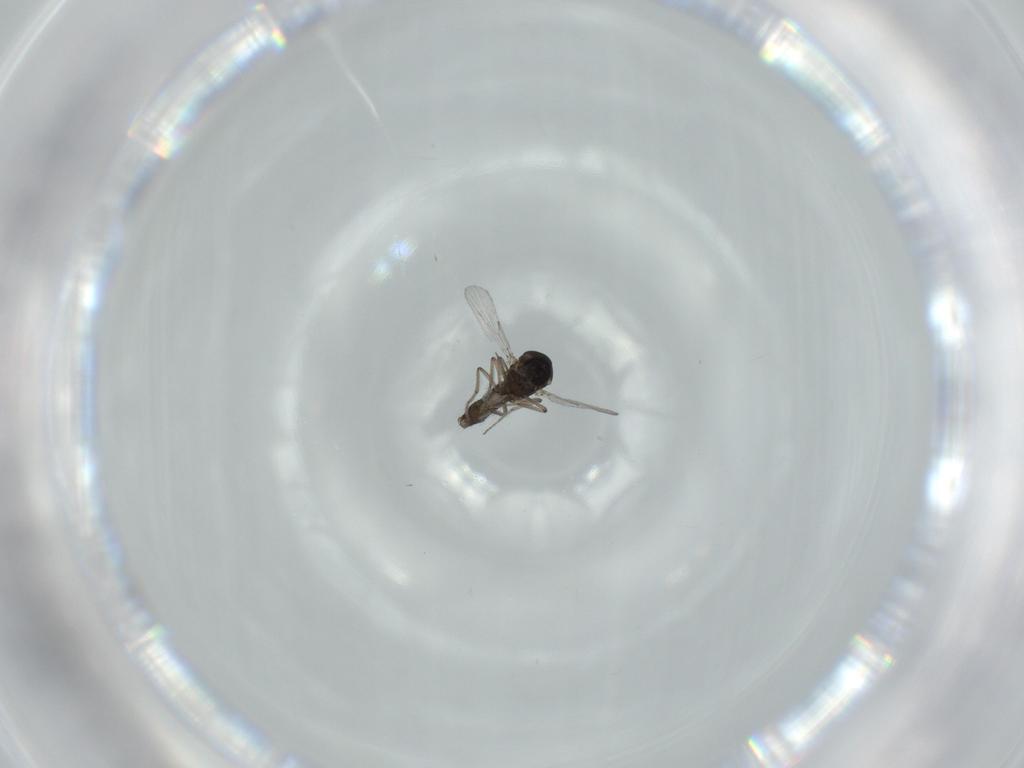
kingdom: Animalia
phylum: Arthropoda
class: Insecta
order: Diptera
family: Ceratopogonidae
